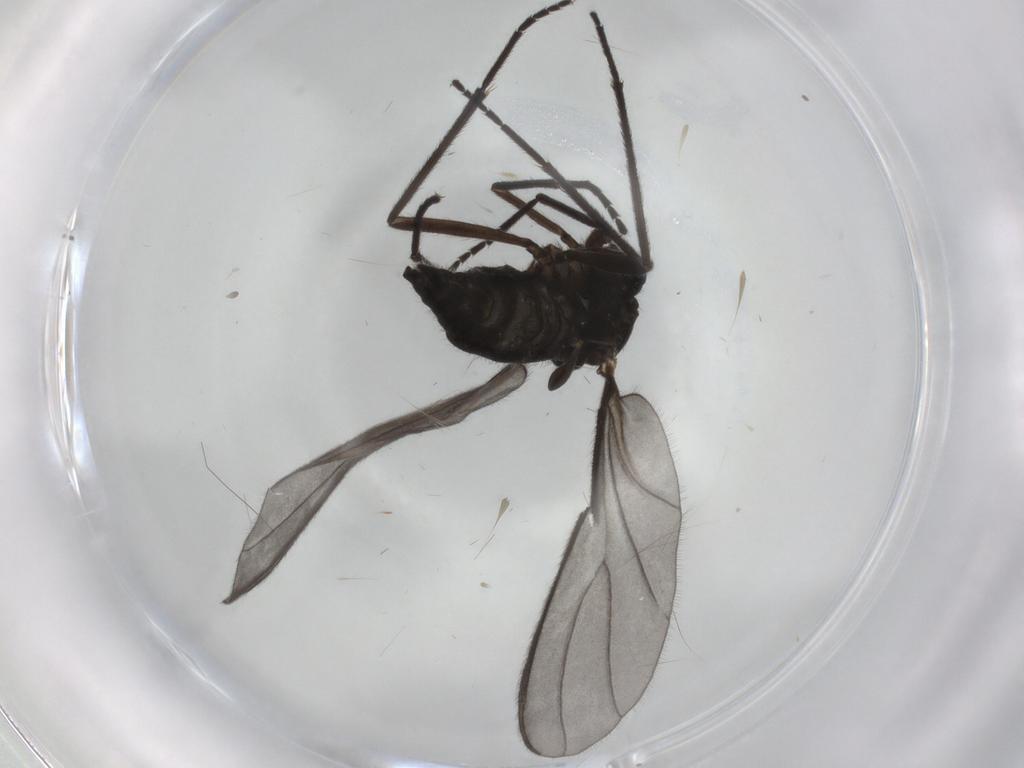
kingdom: Animalia
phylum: Arthropoda
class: Insecta
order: Diptera
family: Sciaridae
